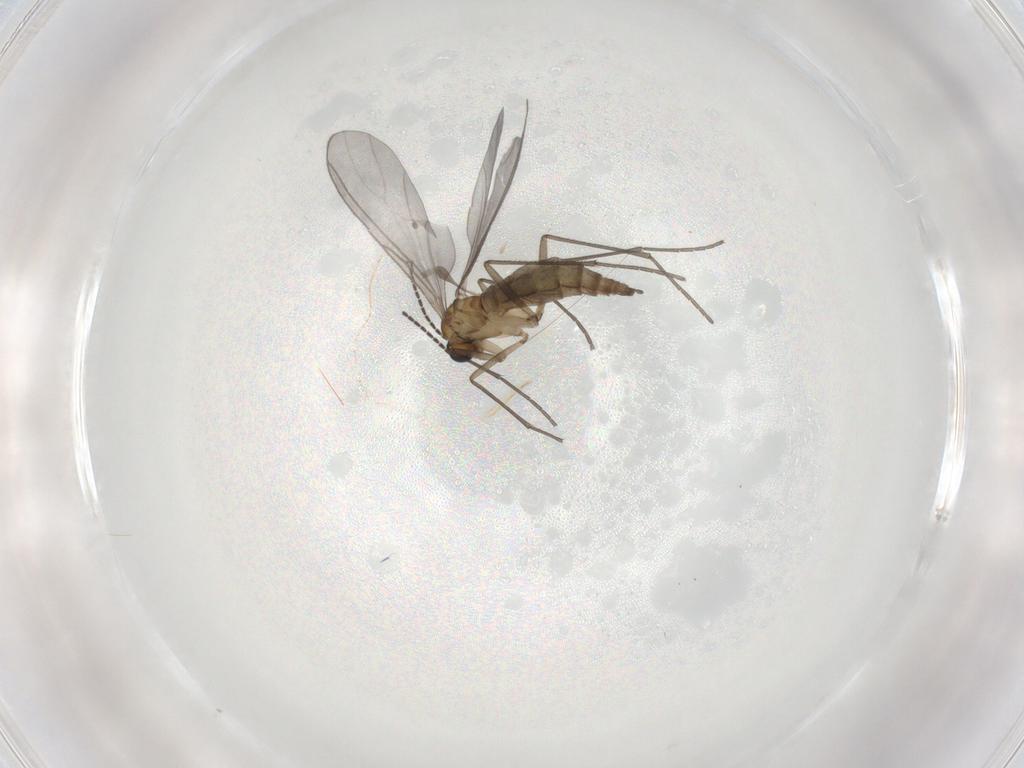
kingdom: Animalia
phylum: Arthropoda
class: Insecta
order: Diptera
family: Sciaridae
